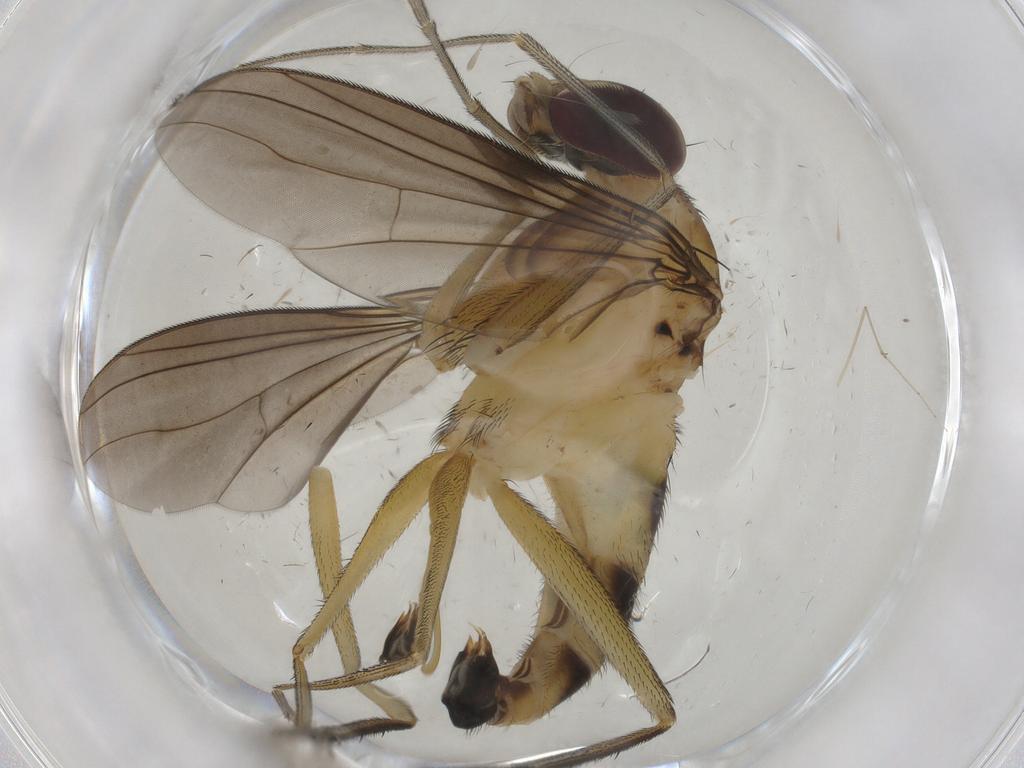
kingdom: Animalia
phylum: Arthropoda
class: Insecta
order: Diptera
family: Dolichopodidae
